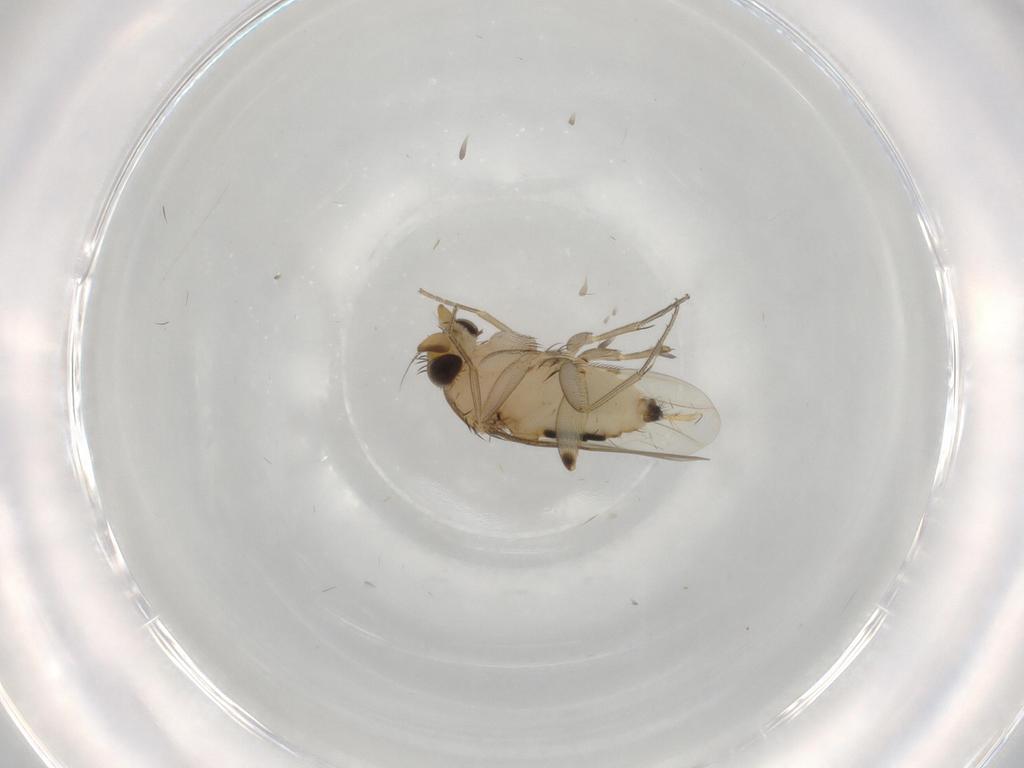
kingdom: Animalia
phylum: Arthropoda
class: Insecta
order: Diptera
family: Phoridae
